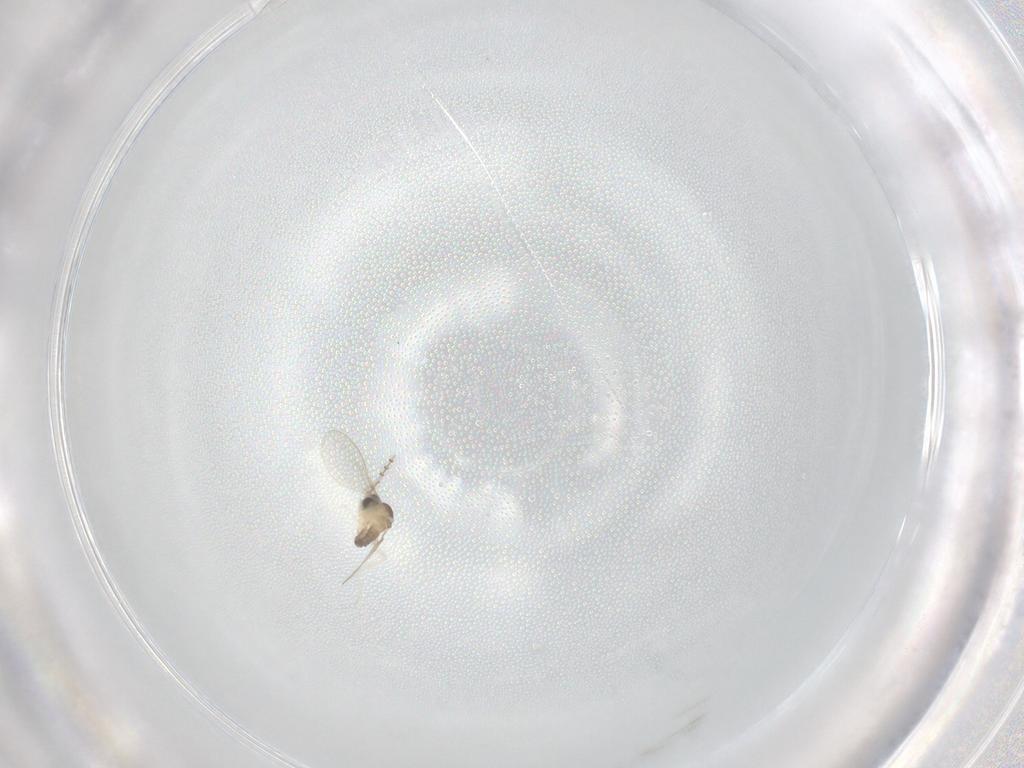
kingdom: Animalia
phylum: Arthropoda
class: Insecta
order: Diptera
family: Cecidomyiidae
